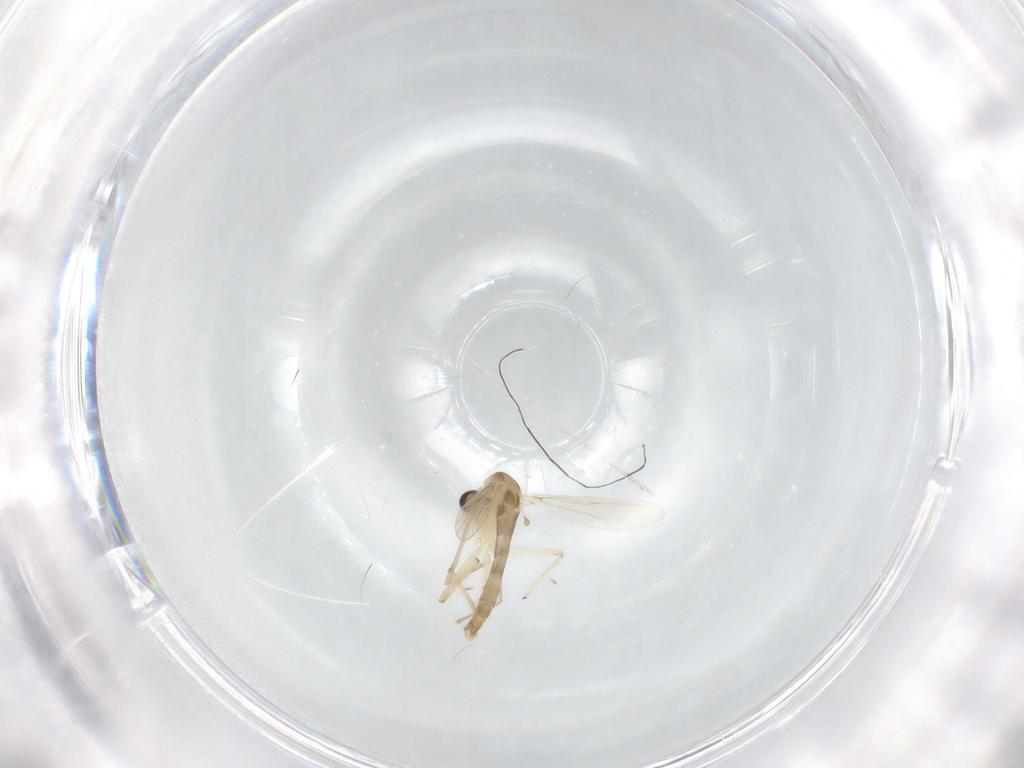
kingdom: Animalia
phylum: Arthropoda
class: Insecta
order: Diptera
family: Chironomidae
